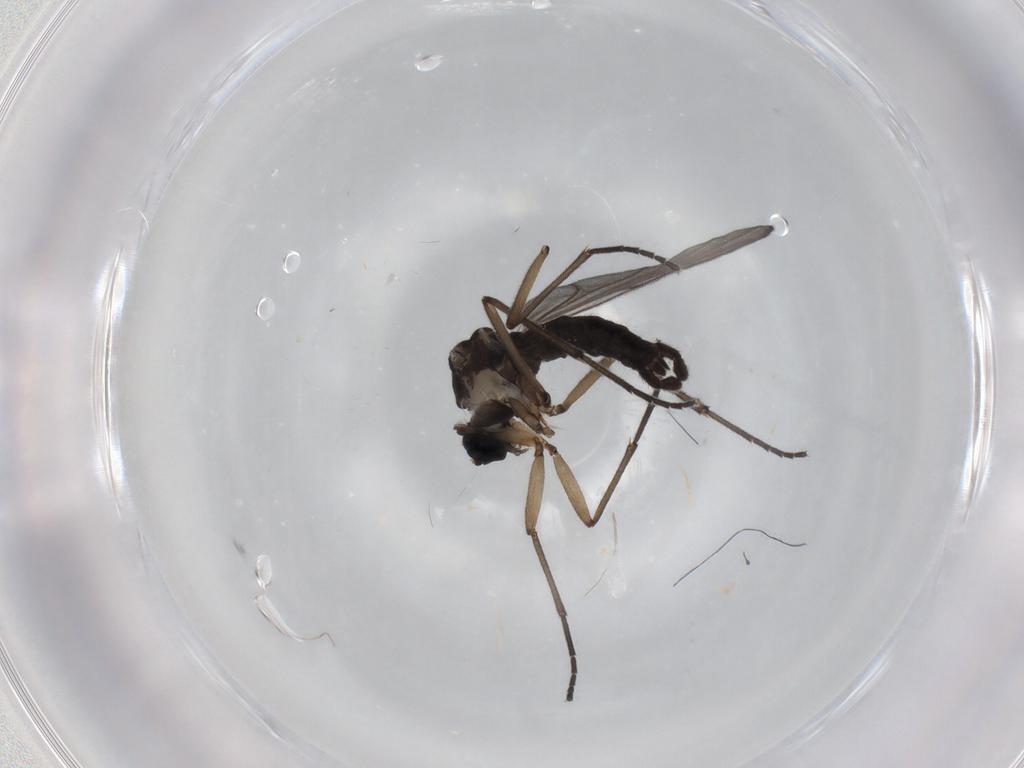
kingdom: Animalia
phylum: Arthropoda
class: Insecta
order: Diptera
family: Sciaridae
